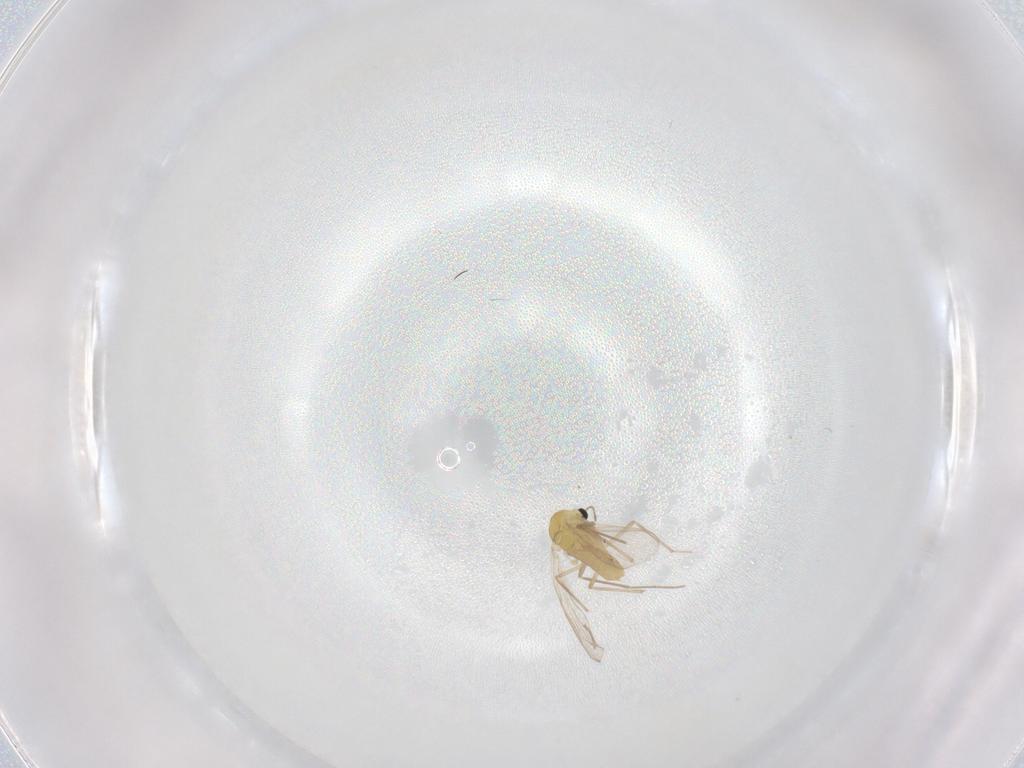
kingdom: Animalia
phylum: Arthropoda
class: Insecta
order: Diptera
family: Chironomidae
